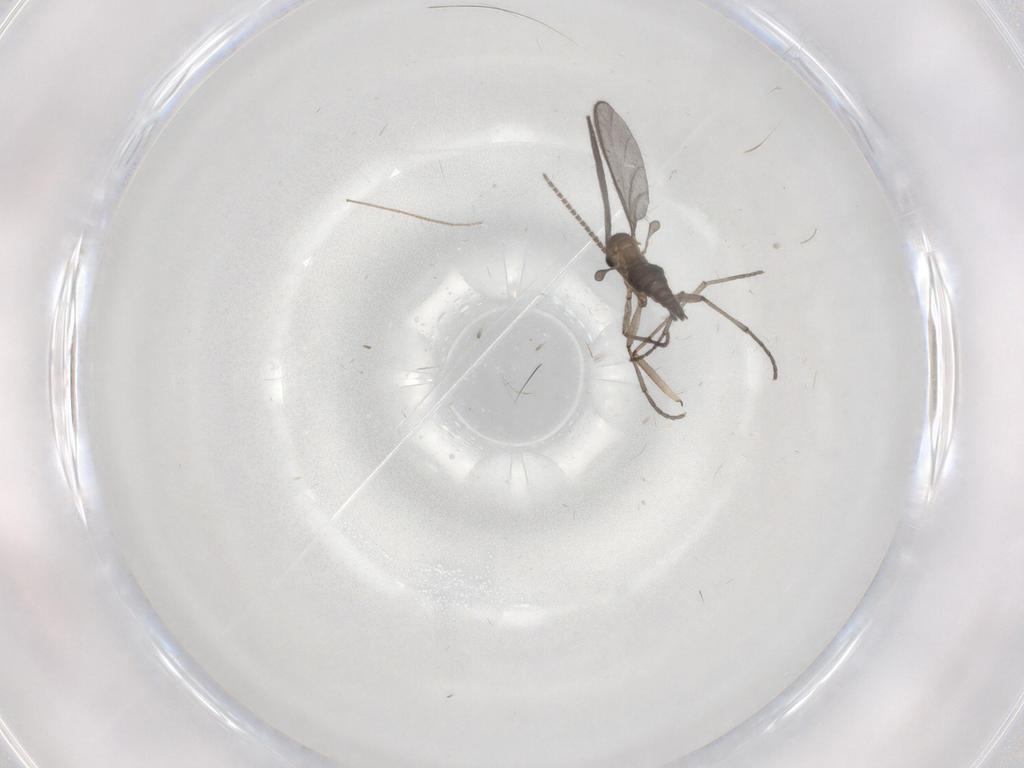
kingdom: Animalia
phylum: Arthropoda
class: Insecta
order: Diptera
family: Sciaridae
